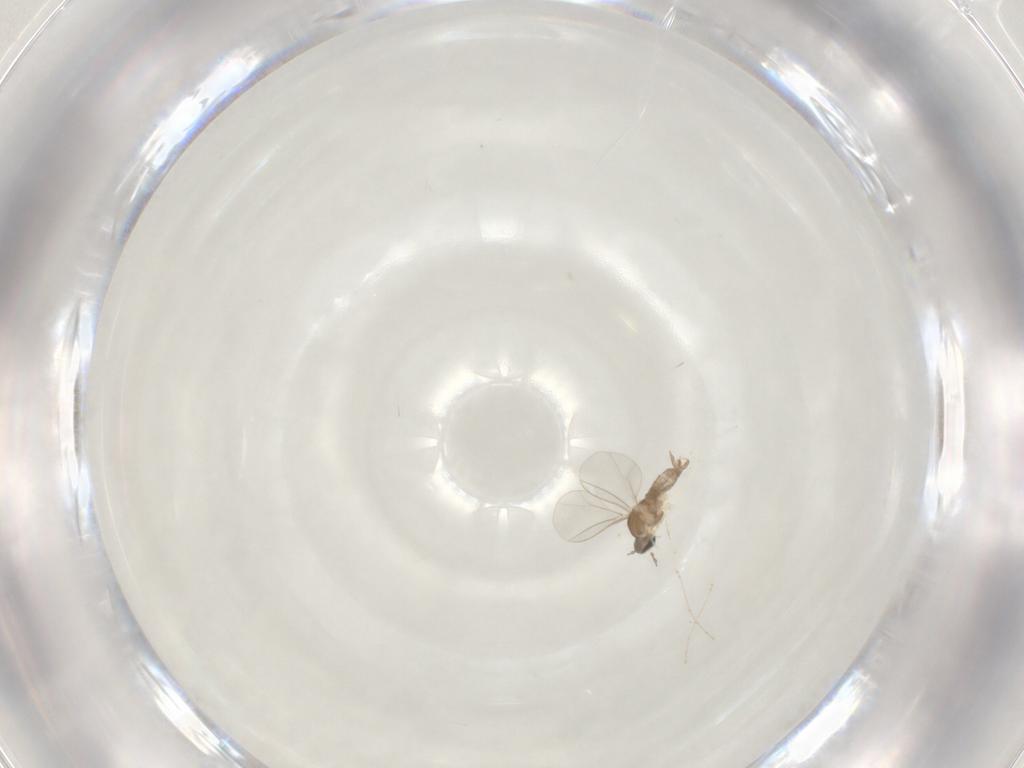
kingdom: Animalia
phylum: Arthropoda
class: Insecta
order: Diptera
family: Cecidomyiidae
